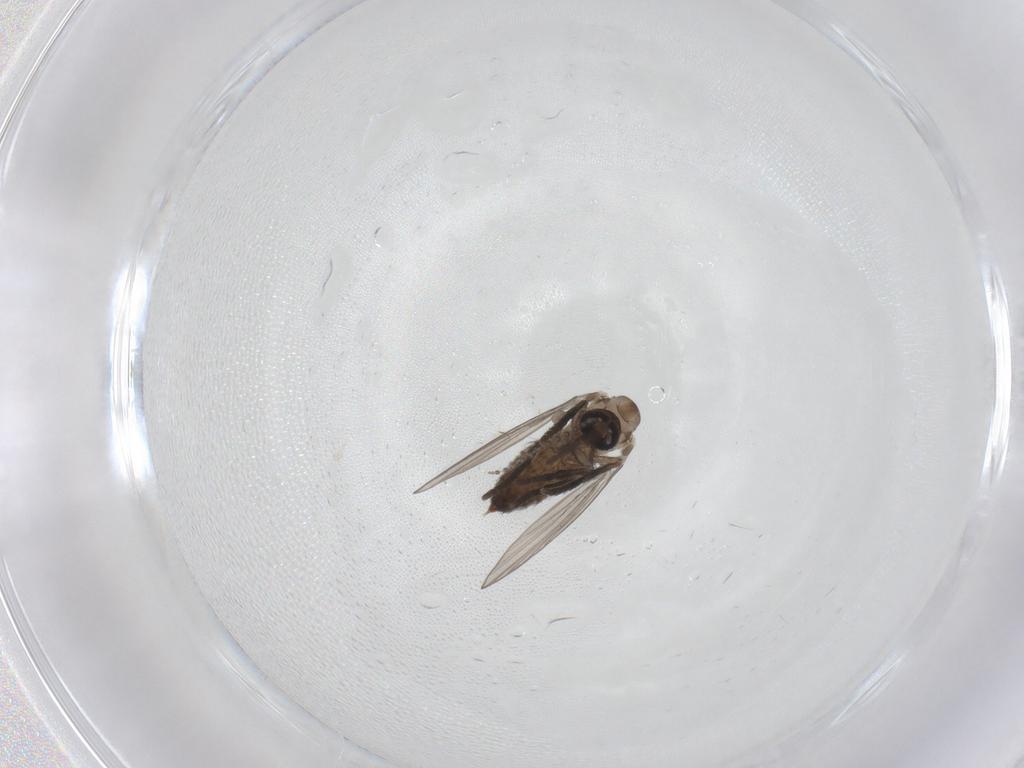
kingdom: Animalia
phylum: Arthropoda
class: Insecta
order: Diptera
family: Psychodidae
